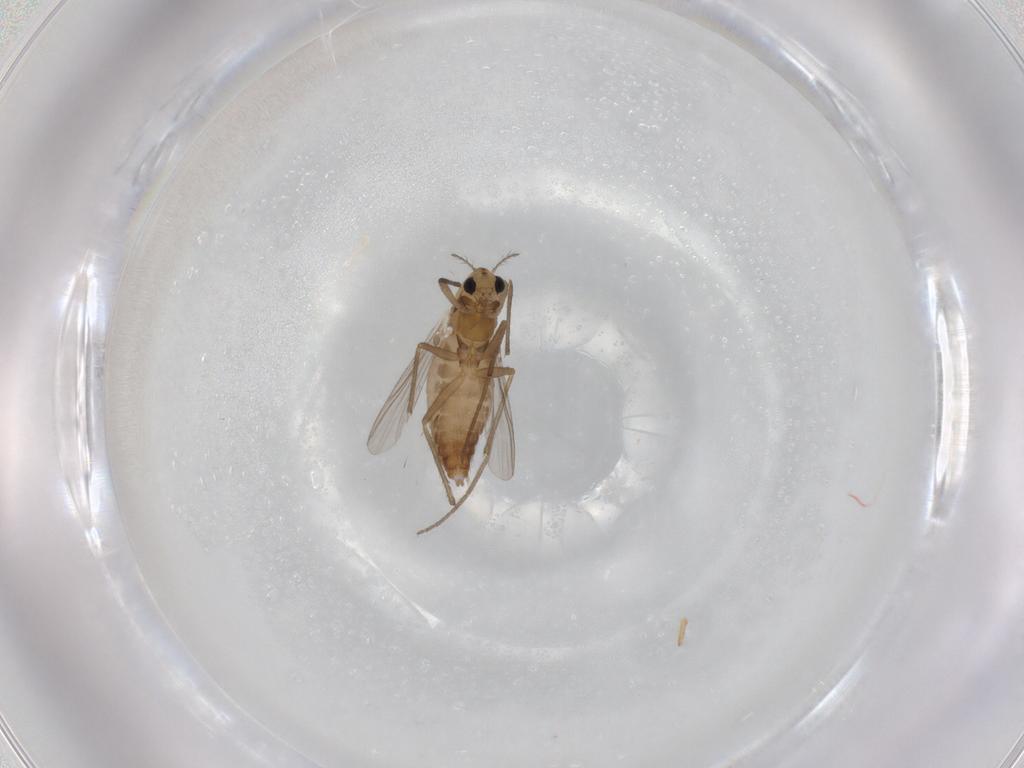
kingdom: Animalia
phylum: Arthropoda
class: Insecta
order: Diptera
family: Chironomidae
